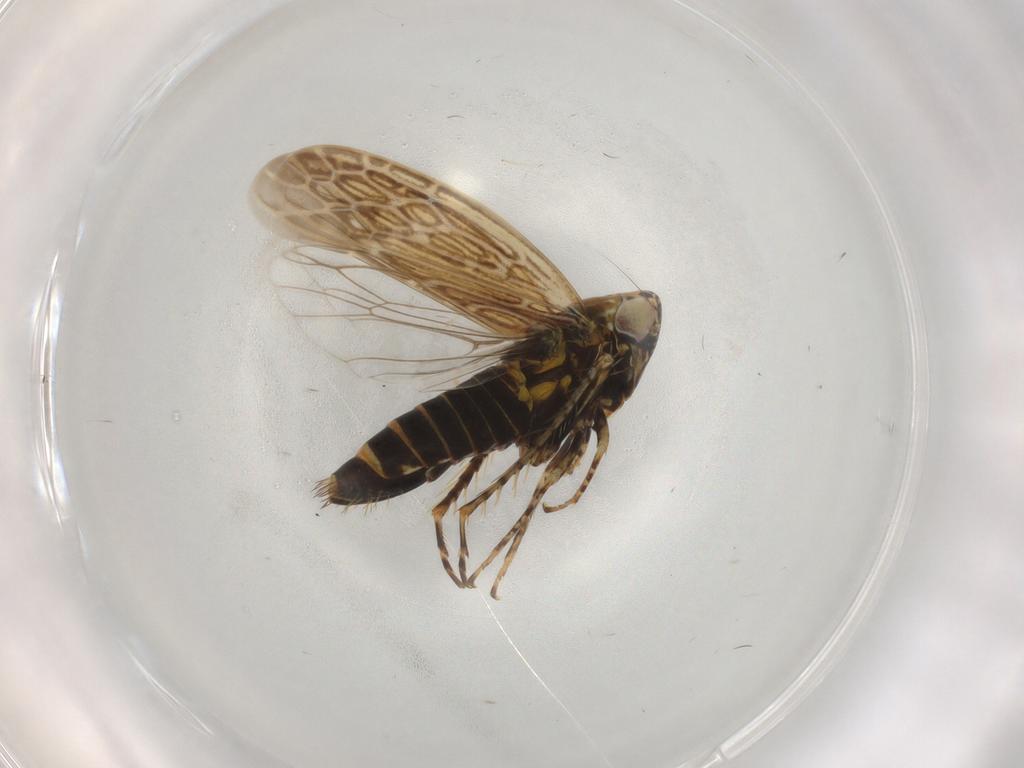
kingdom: Animalia
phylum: Arthropoda
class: Insecta
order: Hemiptera
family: Cicadellidae
